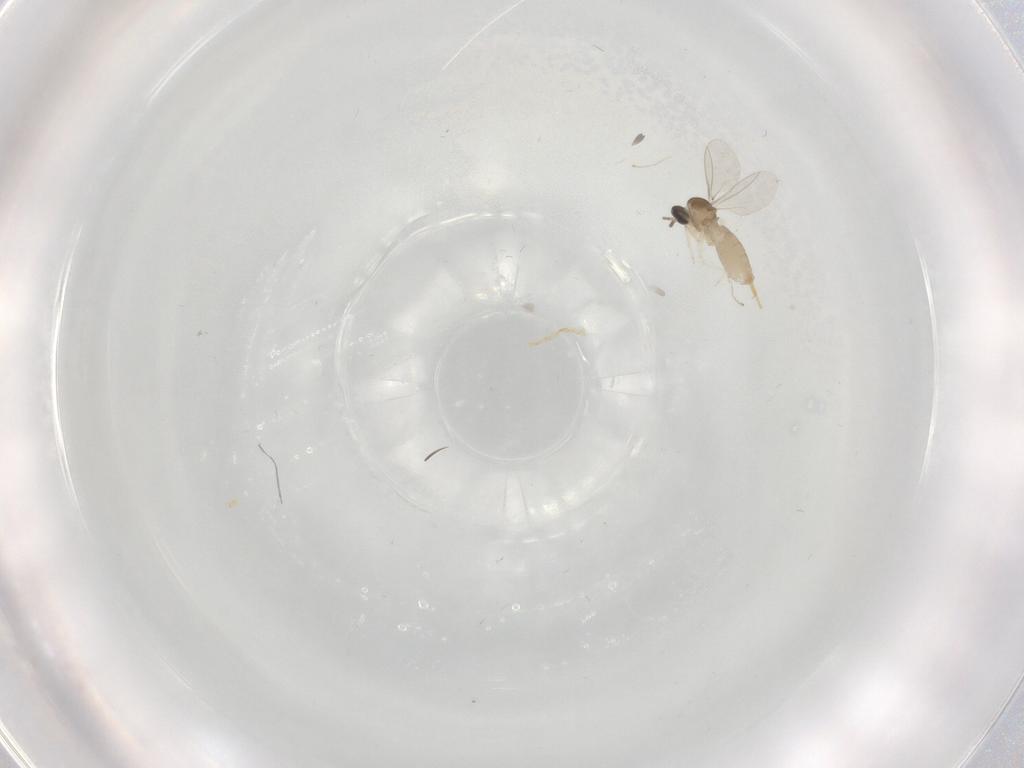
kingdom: Animalia
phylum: Arthropoda
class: Insecta
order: Diptera
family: Cecidomyiidae
